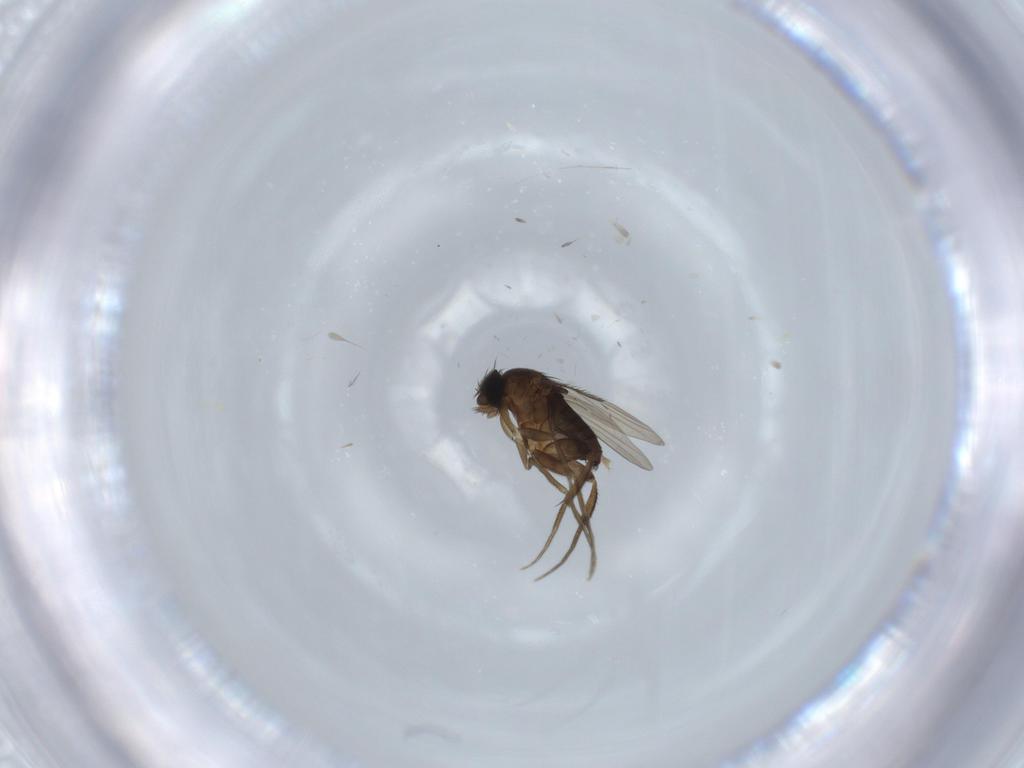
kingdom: Animalia
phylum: Arthropoda
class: Insecta
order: Diptera
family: Phoridae
